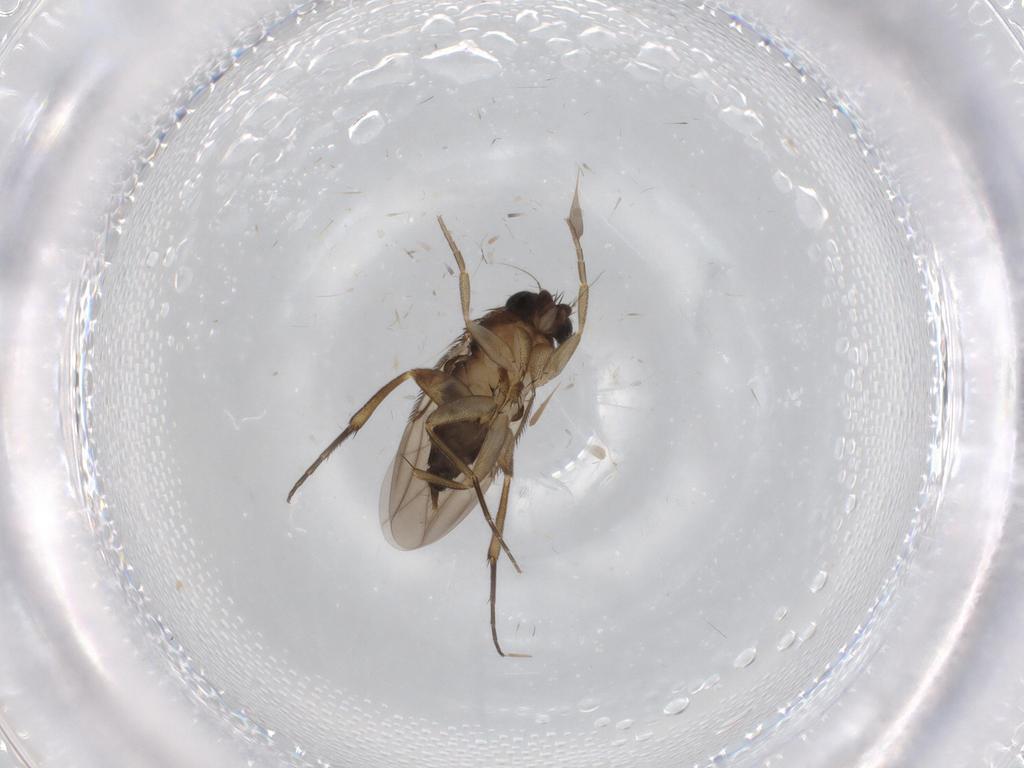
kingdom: Animalia
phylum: Arthropoda
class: Insecta
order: Diptera
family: Phoridae
